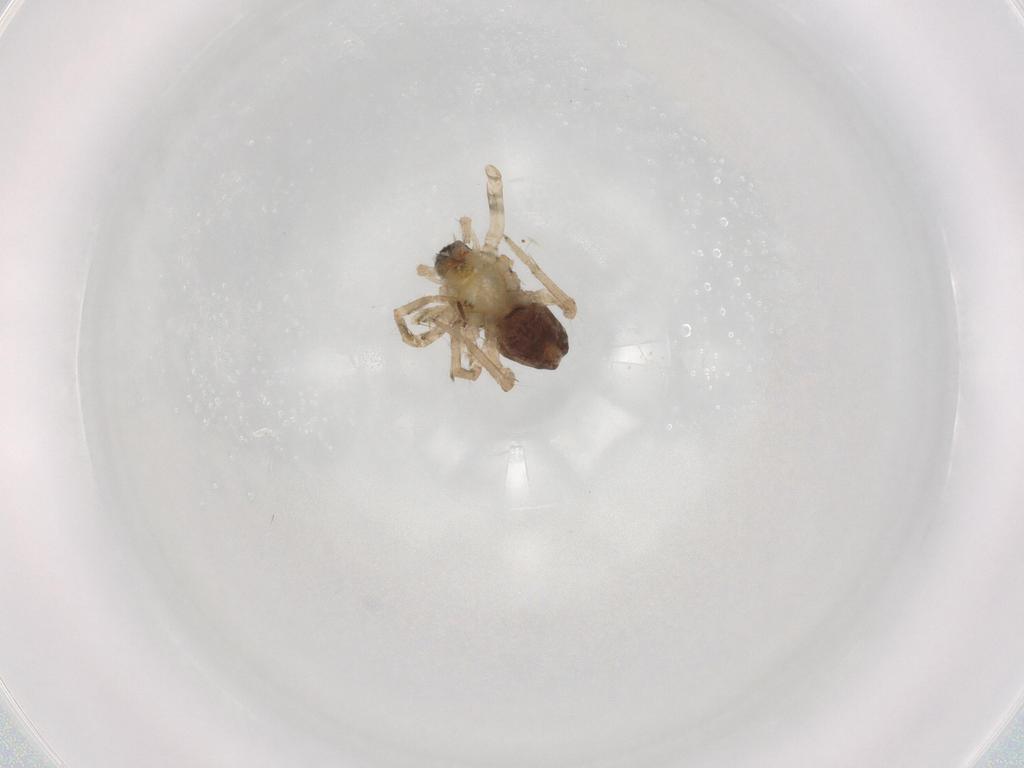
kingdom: Animalia
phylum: Arthropoda
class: Arachnida
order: Araneae
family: Anyphaenidae
